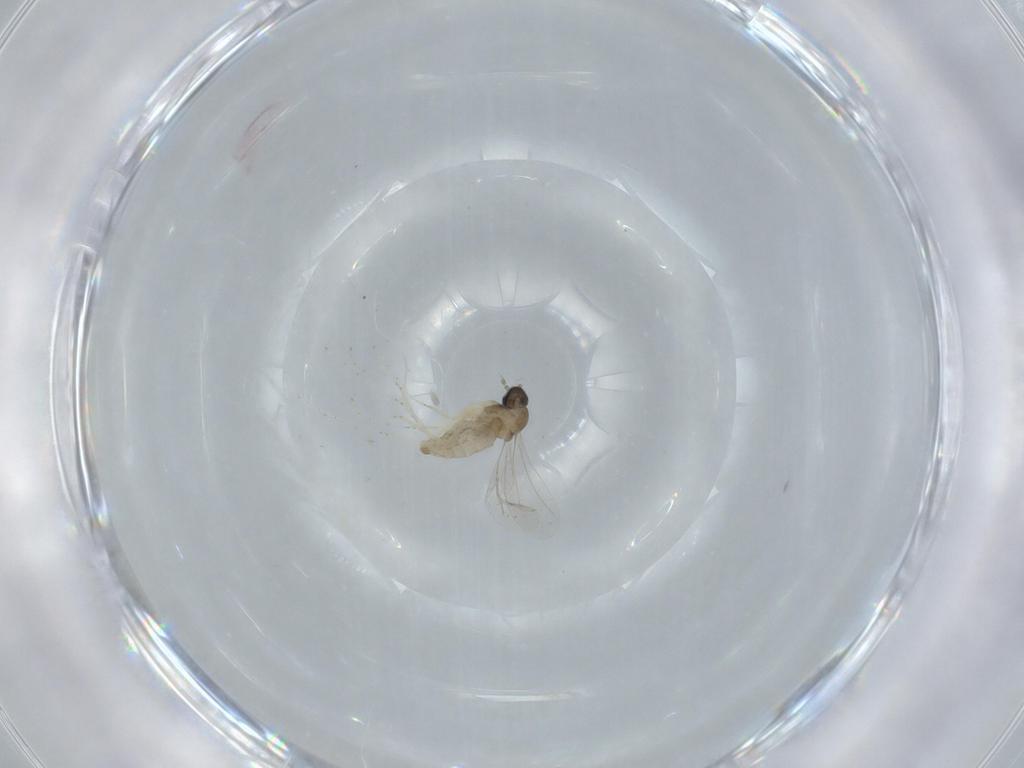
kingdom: Animalia
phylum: Arthropoda
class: Insecta
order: Diptera
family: Cecidomyiidae
